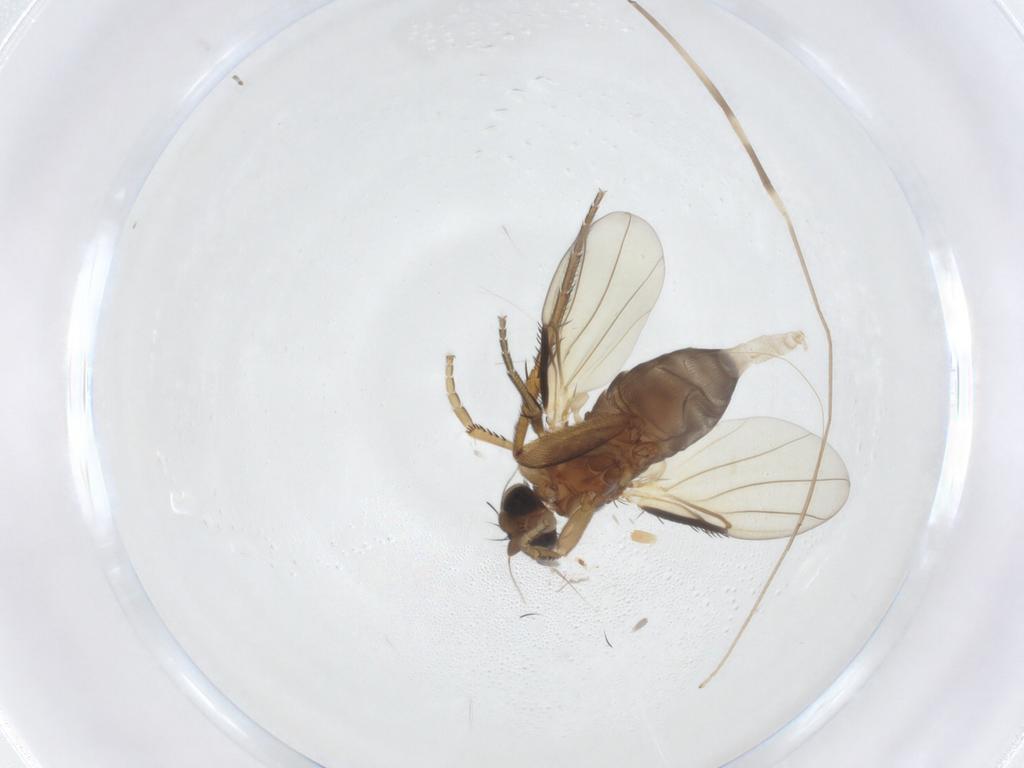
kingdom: Animalia
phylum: Arthropoda
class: Insecta
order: Diptera
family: Phoridae
